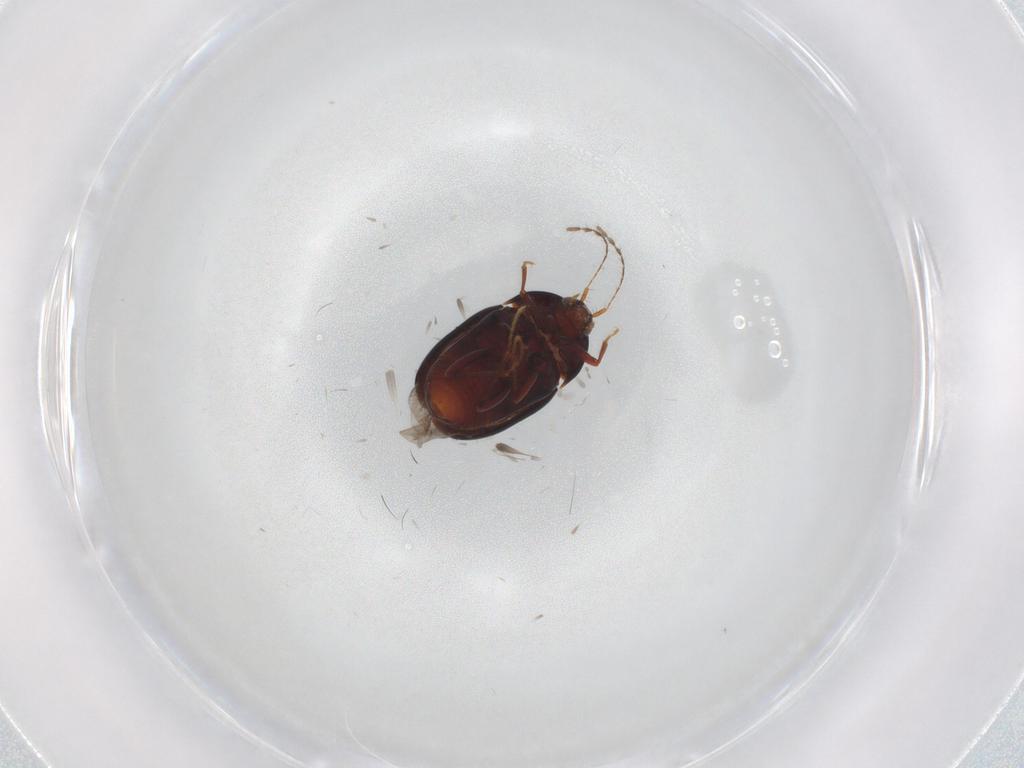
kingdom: Animalia
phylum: Arthropoda
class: Insecta
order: Coleoptera
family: Staphylinidae
